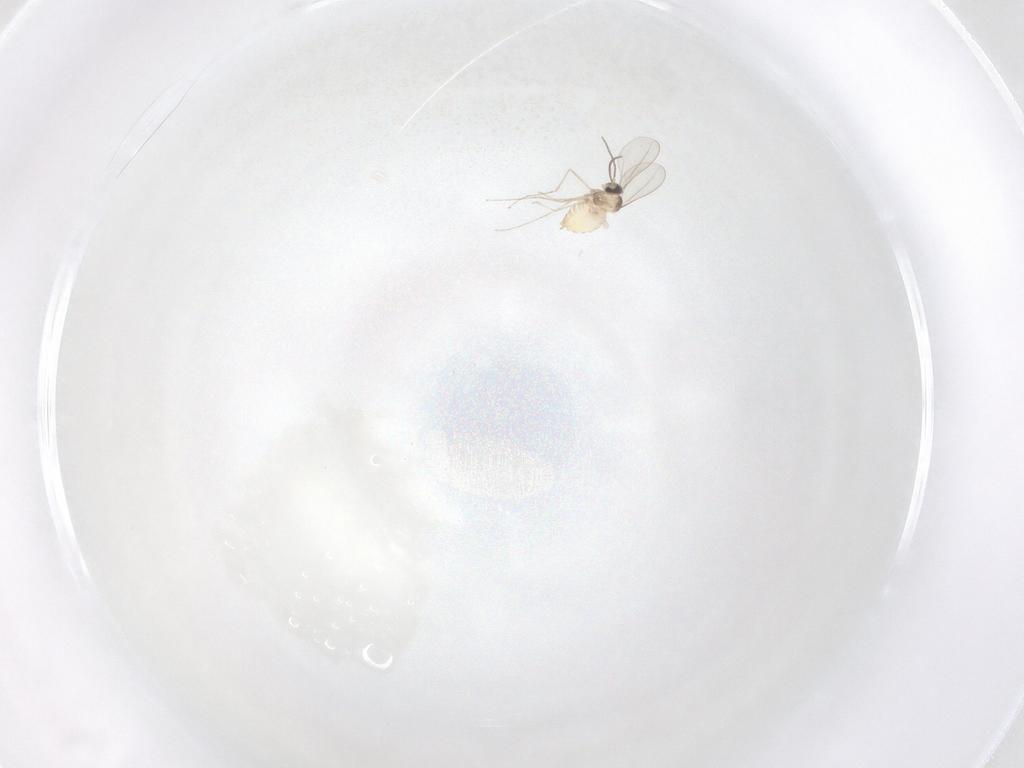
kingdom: Animalia
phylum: Arthropoda
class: Insecta
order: Diptera
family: Cecidomyiidae
